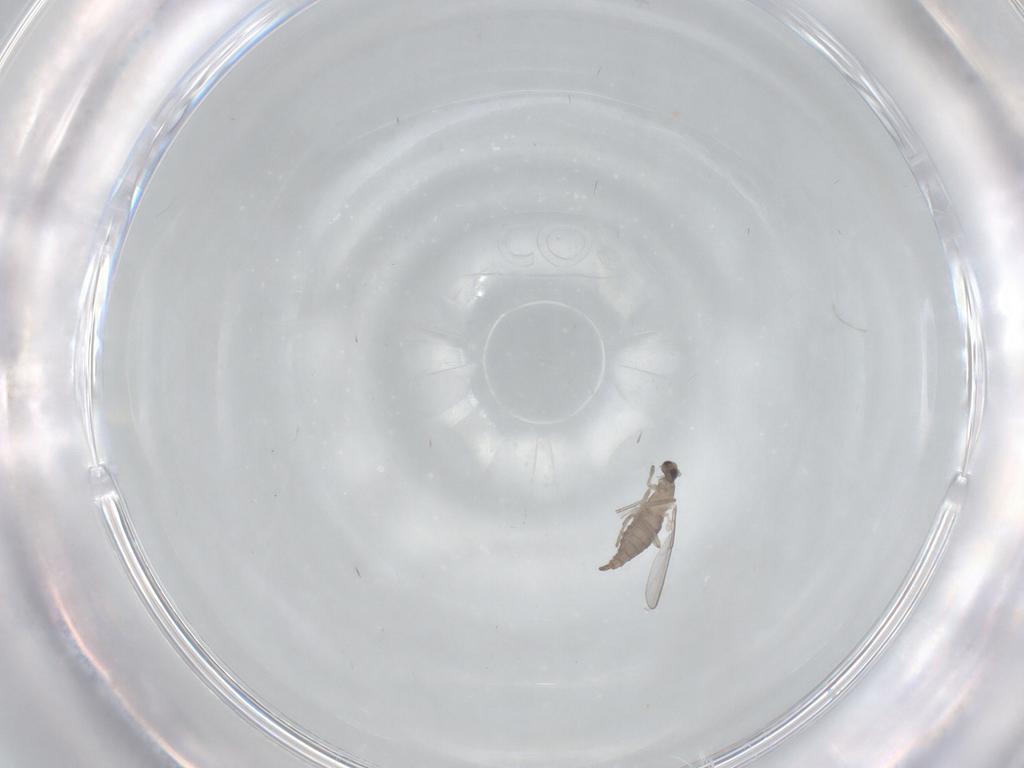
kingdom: Animalia
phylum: Arthropoda
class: Insecta
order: Diptera
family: Cecidomyiidae
